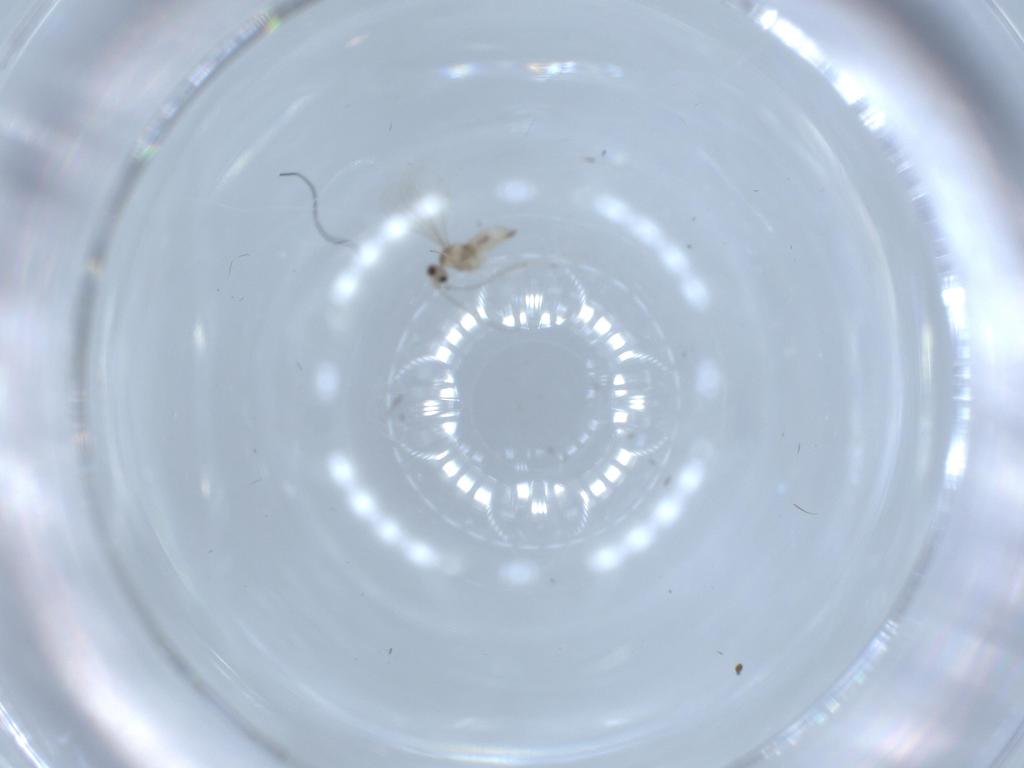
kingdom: Animalia
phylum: Arthropoda
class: Insecta
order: Diptera
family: Cecidomyiidae
